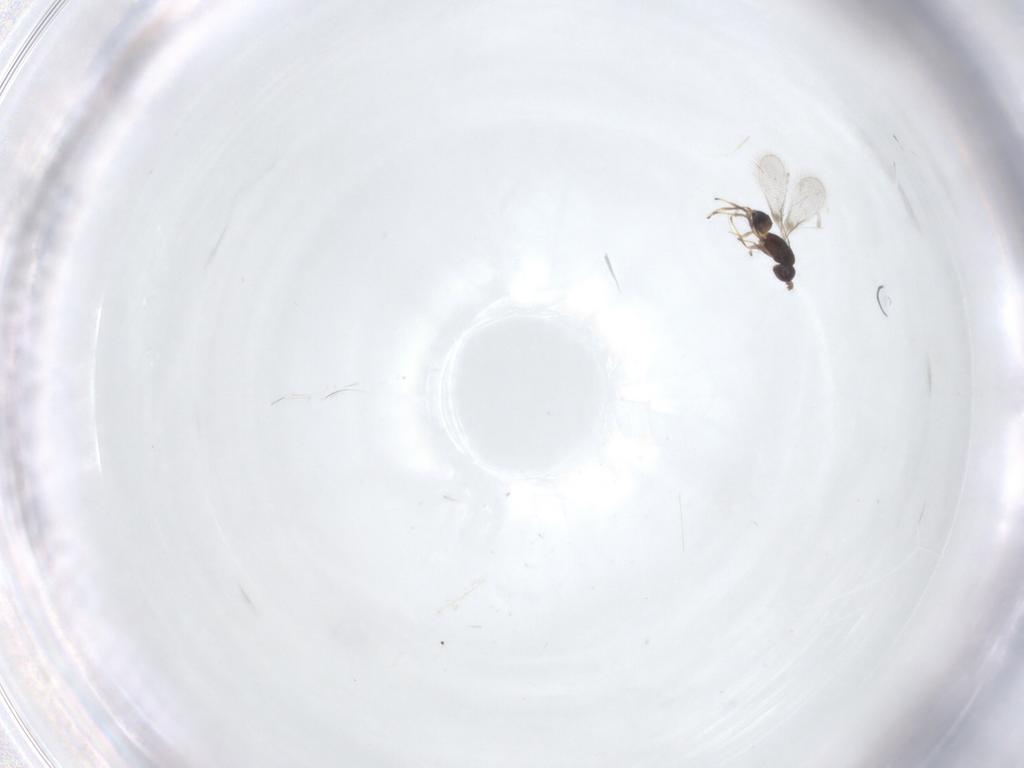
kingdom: Animalia
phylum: Arthropoda
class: Insecta
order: Hymenoptera
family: Mymaridae
